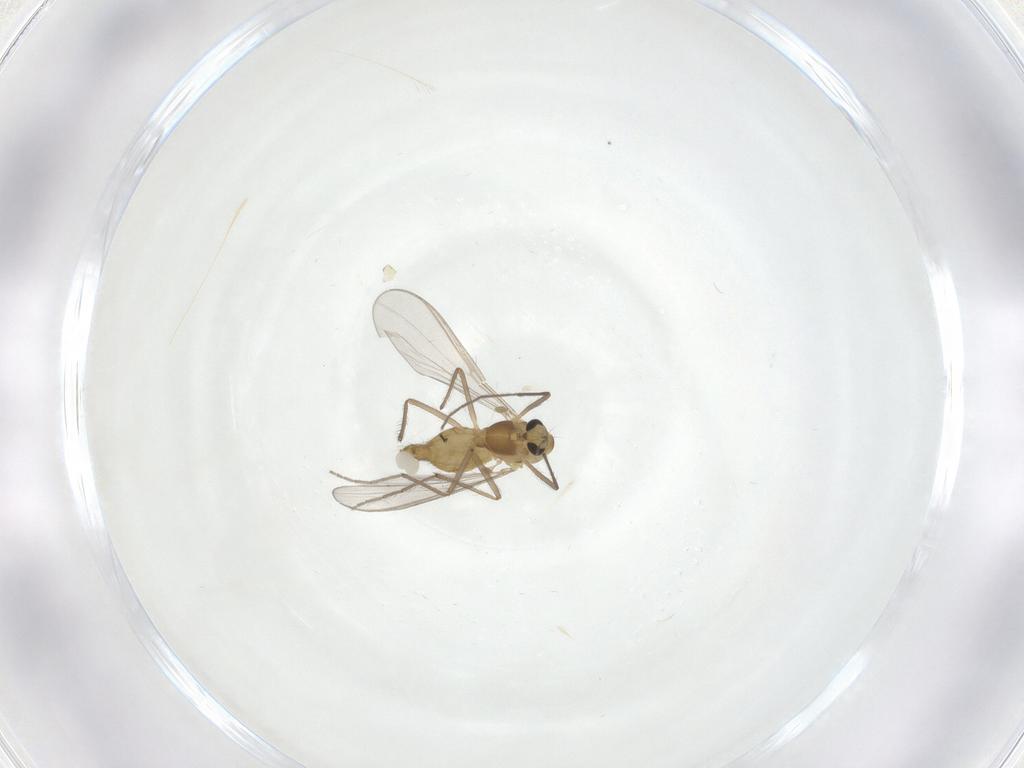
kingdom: Animalia
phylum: Arthropoda
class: Insecta
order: Diptera
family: Chironomidae
